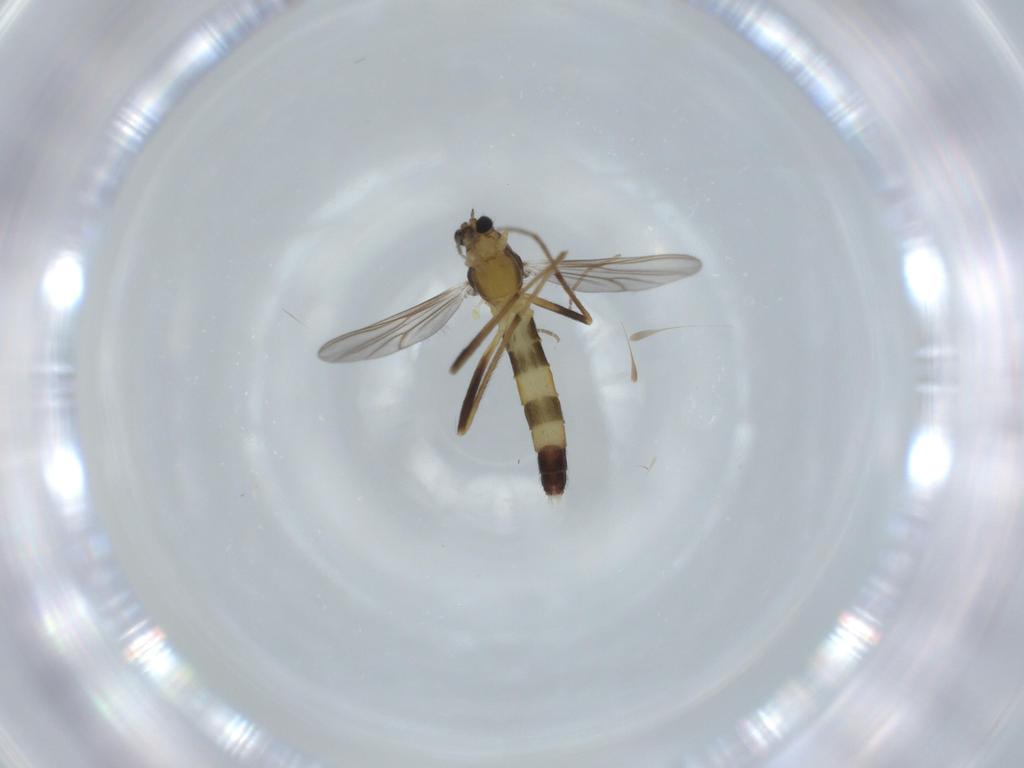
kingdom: Animalia
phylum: Arthropoda
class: Insecta
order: Diptera
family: Chironomidae
